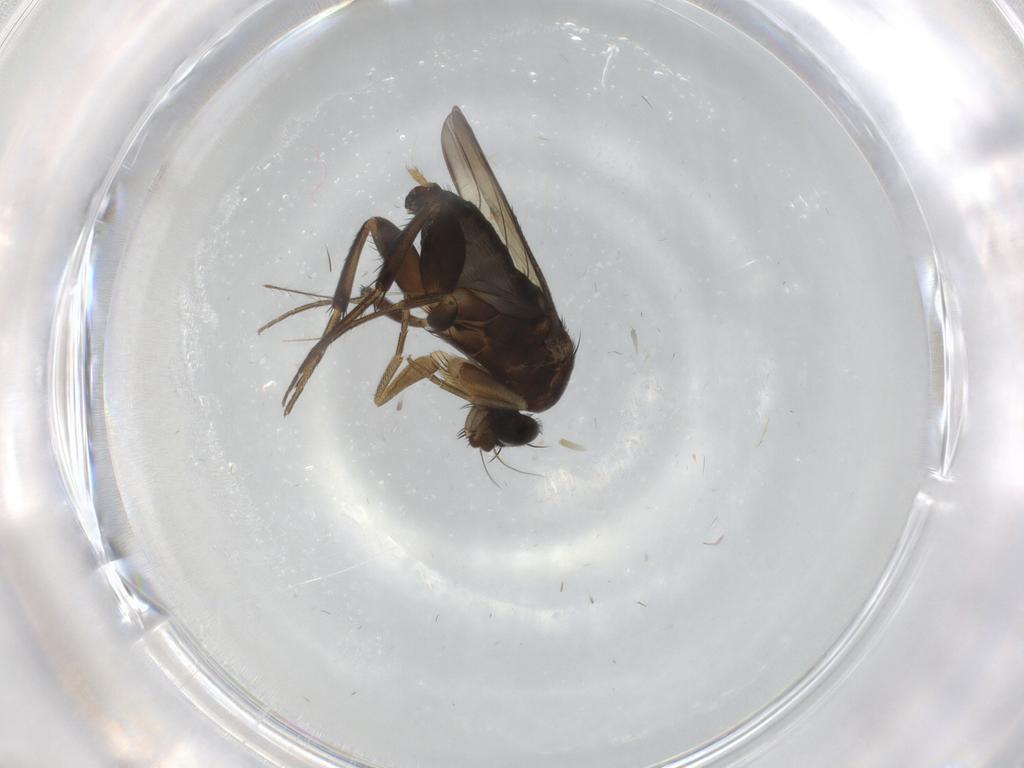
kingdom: Animalia
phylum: Arthropoda
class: Insecta
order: Diptera
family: Phoridae
